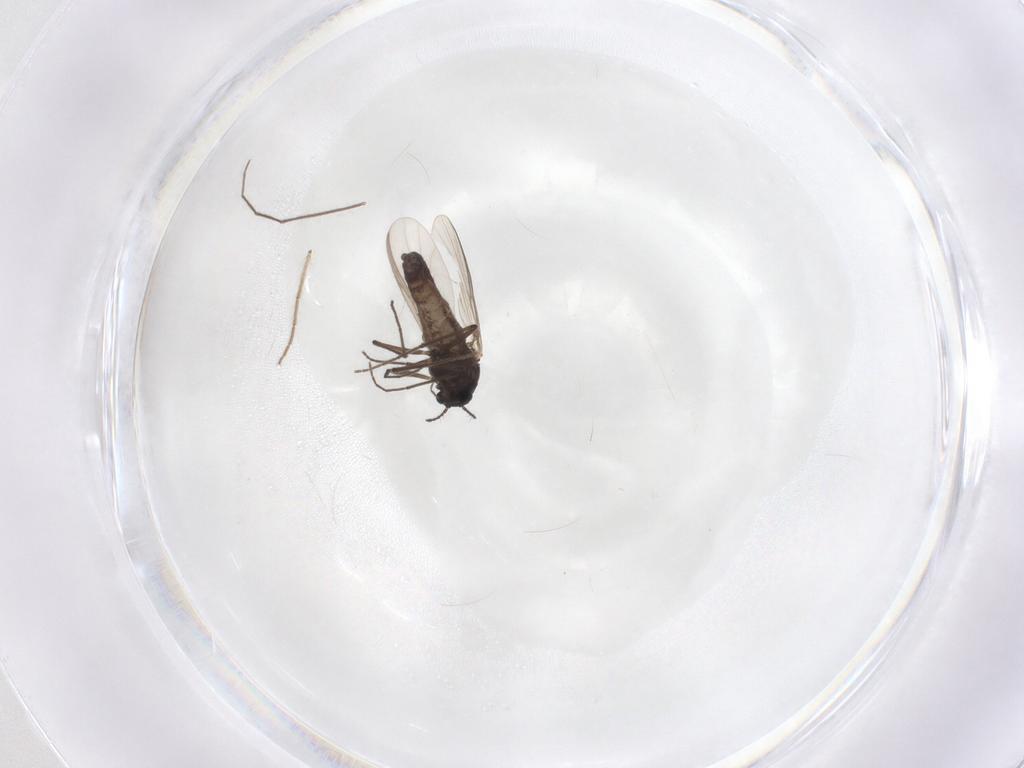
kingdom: Animalia
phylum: Arthropoda
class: Insecta
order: Diptera
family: Chironomidae
